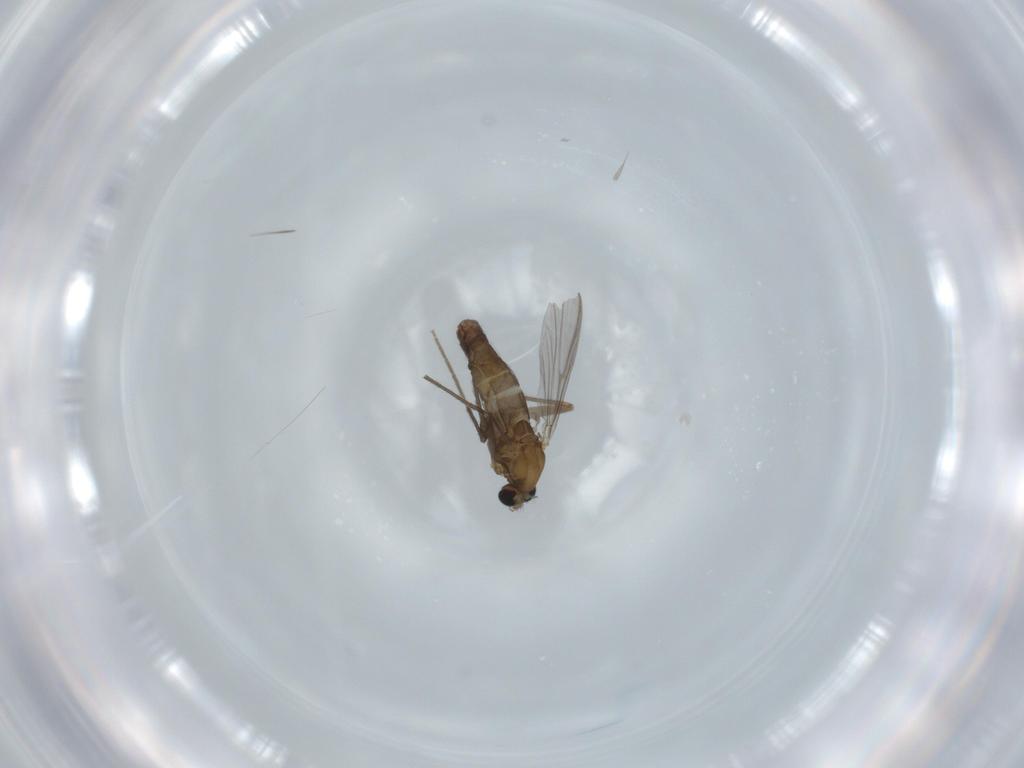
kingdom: Animalia
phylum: Arthropoda
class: Insecta
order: Diptera
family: Chironomidae
